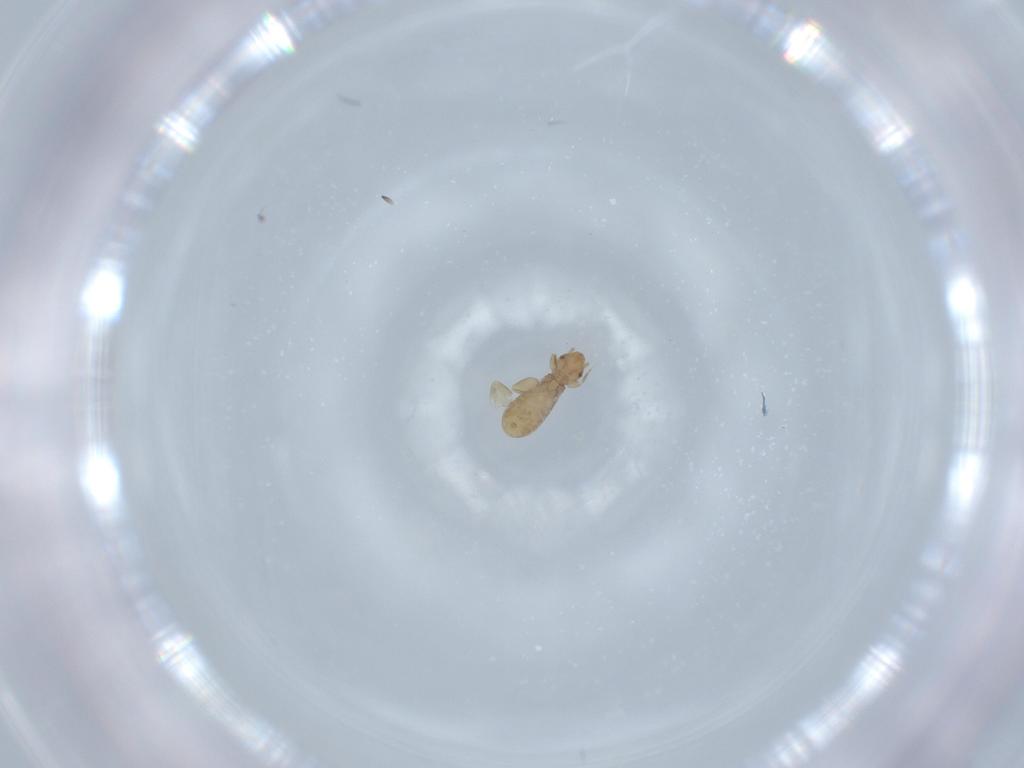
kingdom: Animalia
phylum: Arthropoda
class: Insecta
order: Psocodea
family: Liposcelididae
